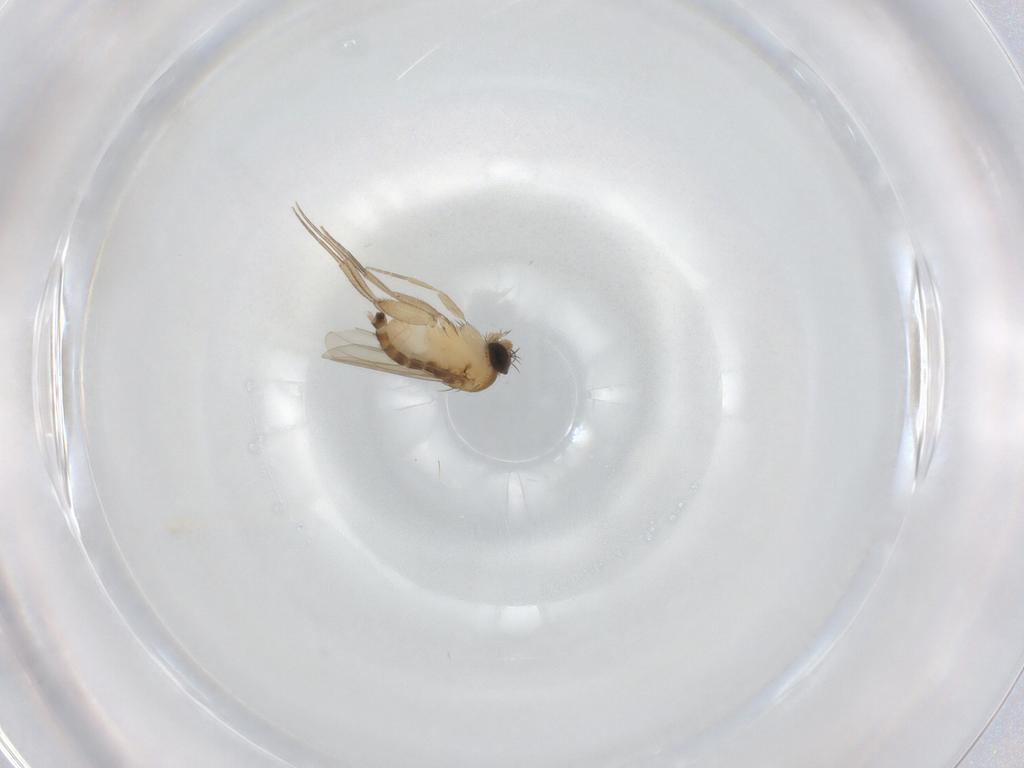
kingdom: Animalia
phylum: Arthropoda
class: Insecta
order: Diptera
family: Phoridae
